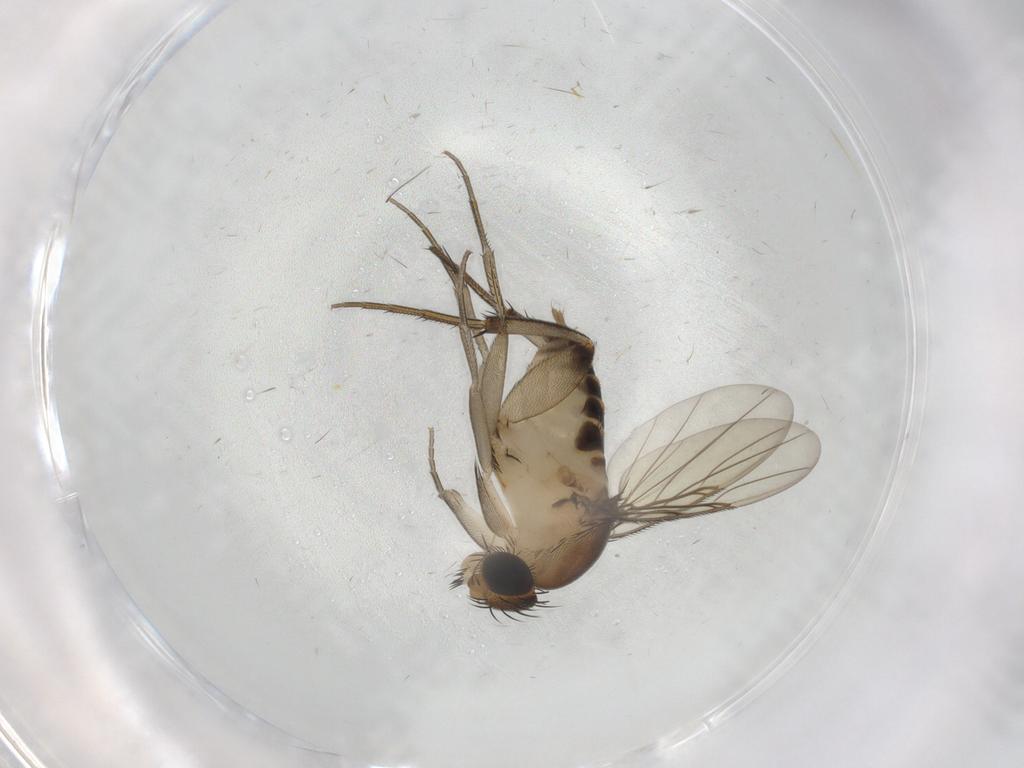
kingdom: Animalia
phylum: Arthropoda
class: Insecta
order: Diptera
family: Phoridae
